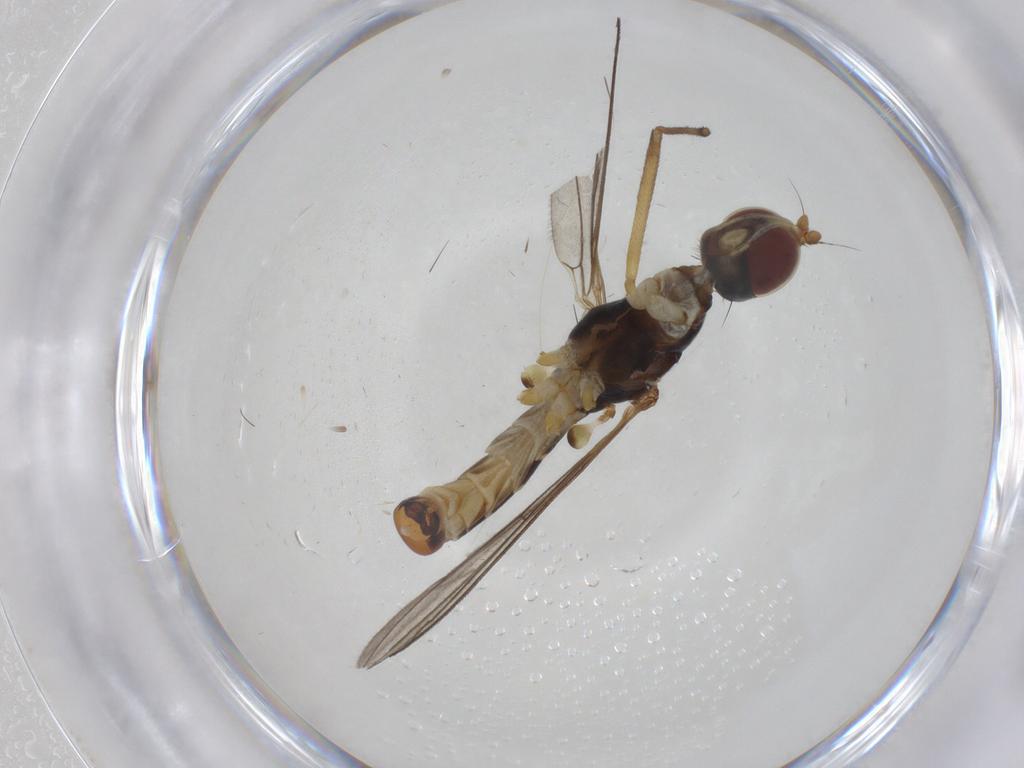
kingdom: Animalia
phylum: Arthropoda
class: Insecta
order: Diptera
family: Micropezidae
